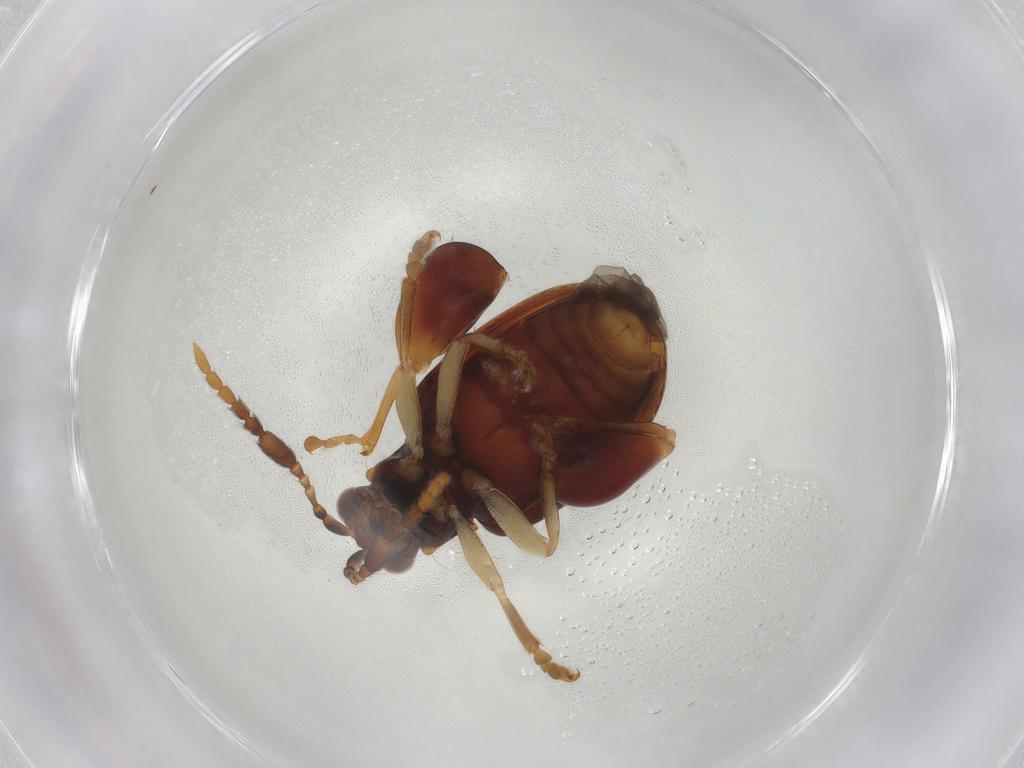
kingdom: Animalia
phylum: Arthropoda
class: Insecta
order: Coleoptera
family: Chrysomelidae
